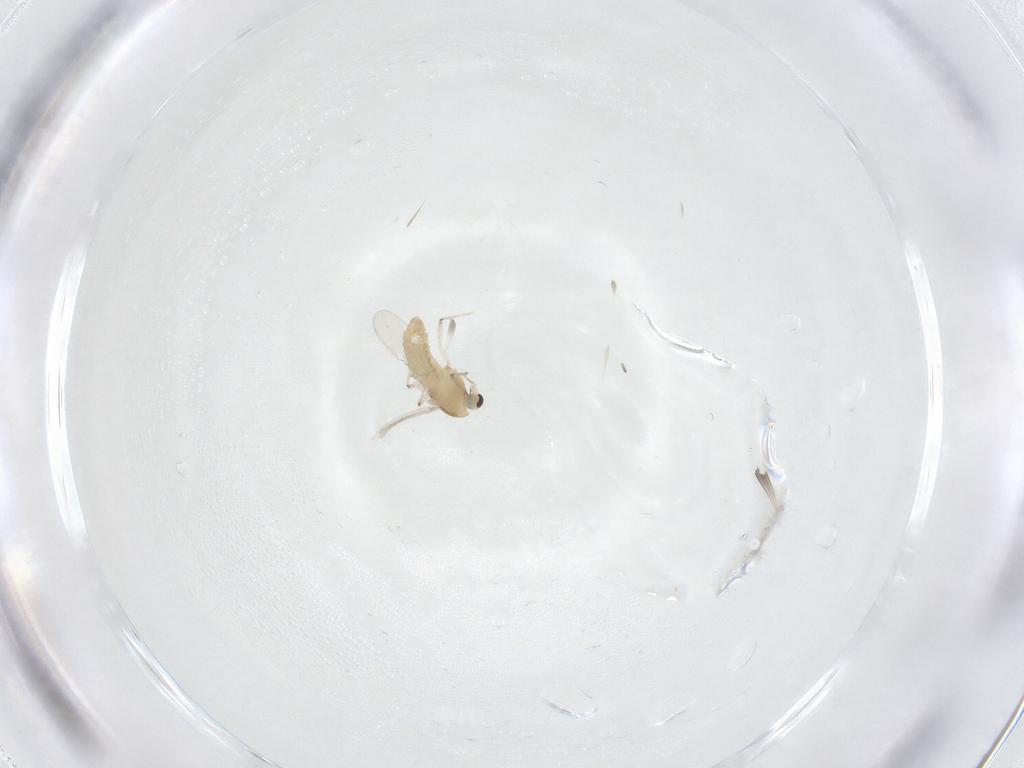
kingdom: Animalia
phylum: Arthropoda
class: Insecta
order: Diptera
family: Chironomidae
